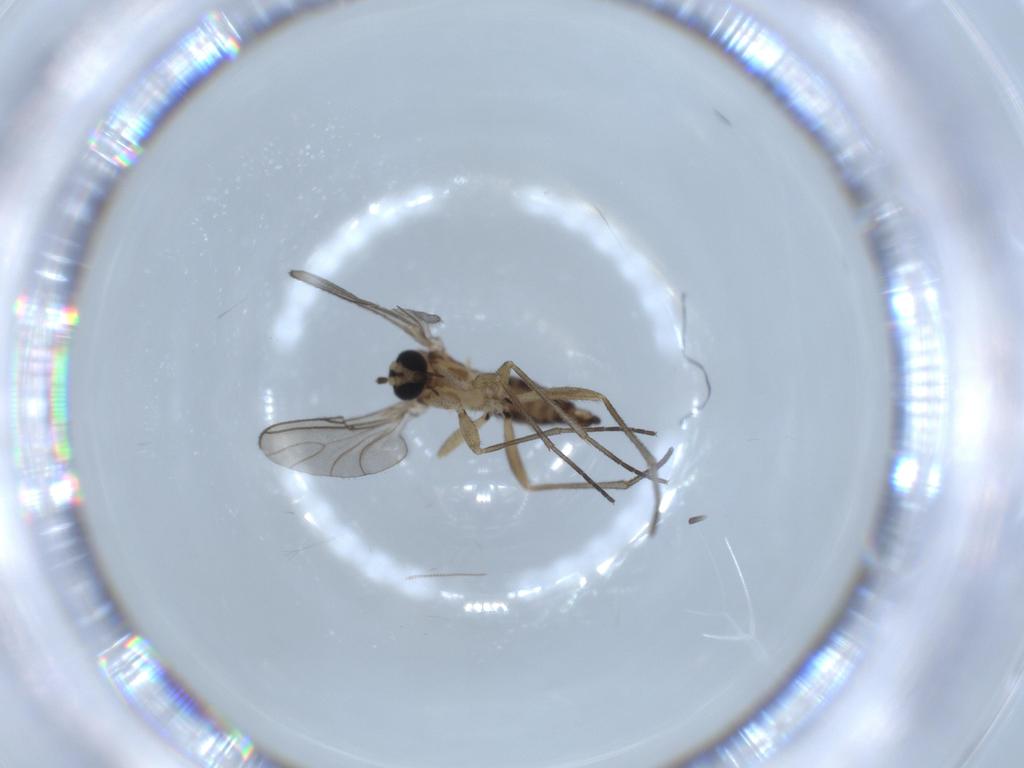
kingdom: Animalia
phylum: Arthropoda
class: Insecta
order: Diptera
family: Sciaridae
